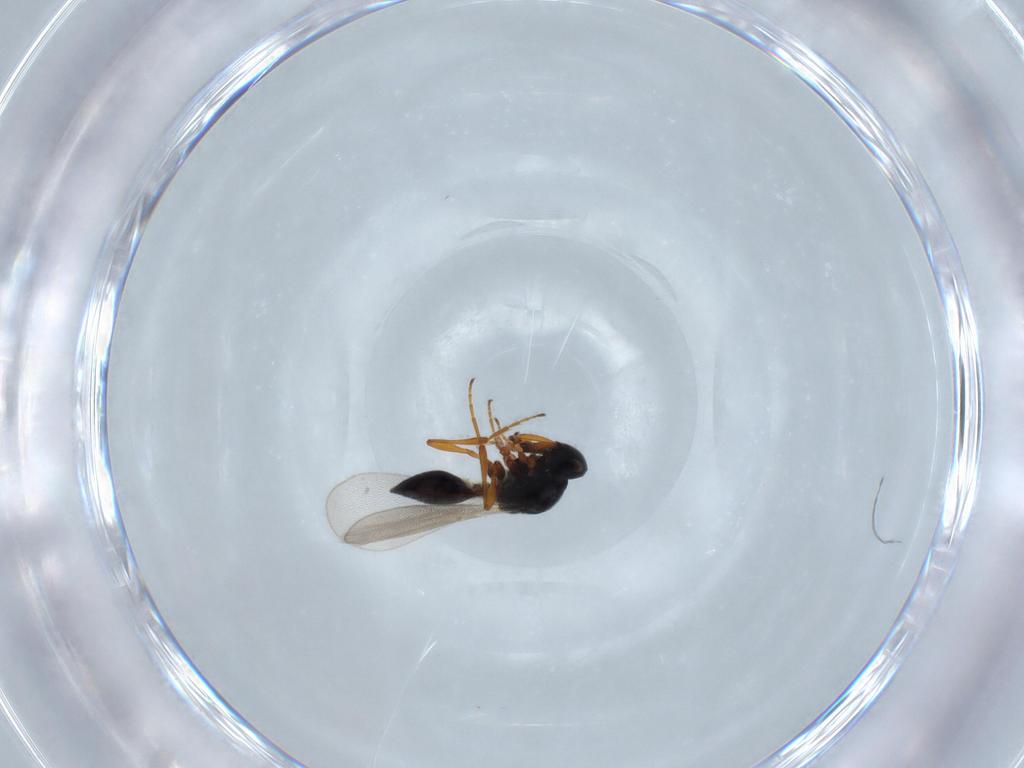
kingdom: Animalia
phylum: Arthropoda
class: Insecta
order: Hymenoptera
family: Platygastridae
